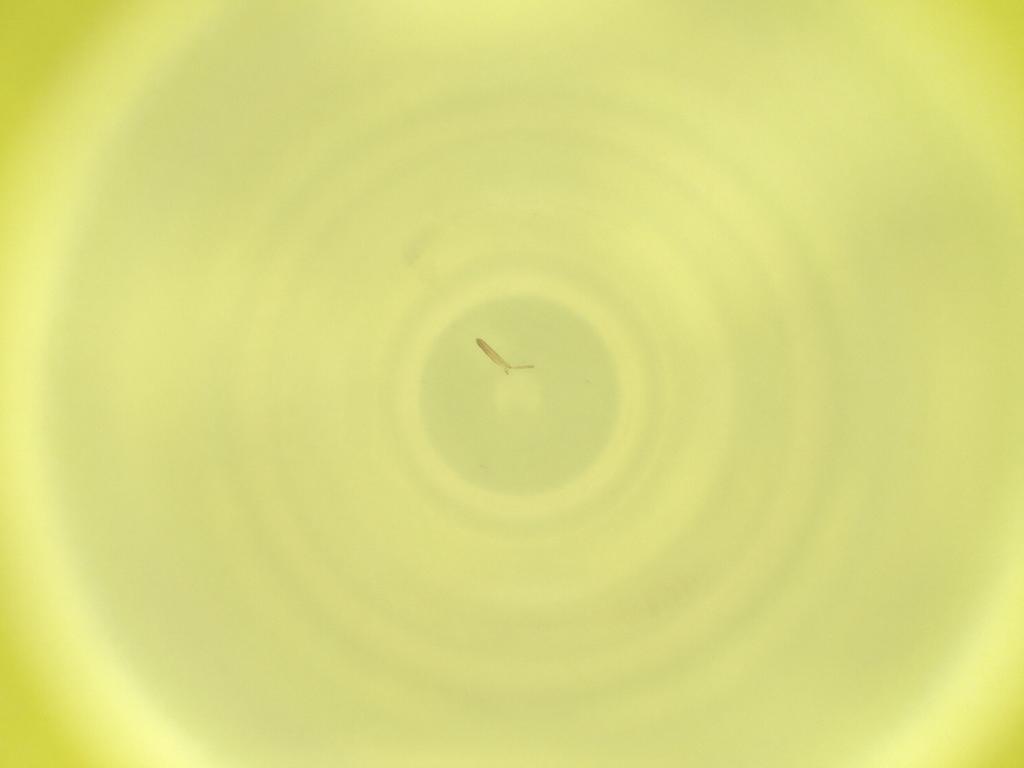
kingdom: Animalia
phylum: Arthropoda
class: Insecta
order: Diptera
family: Cecidomyiidae
